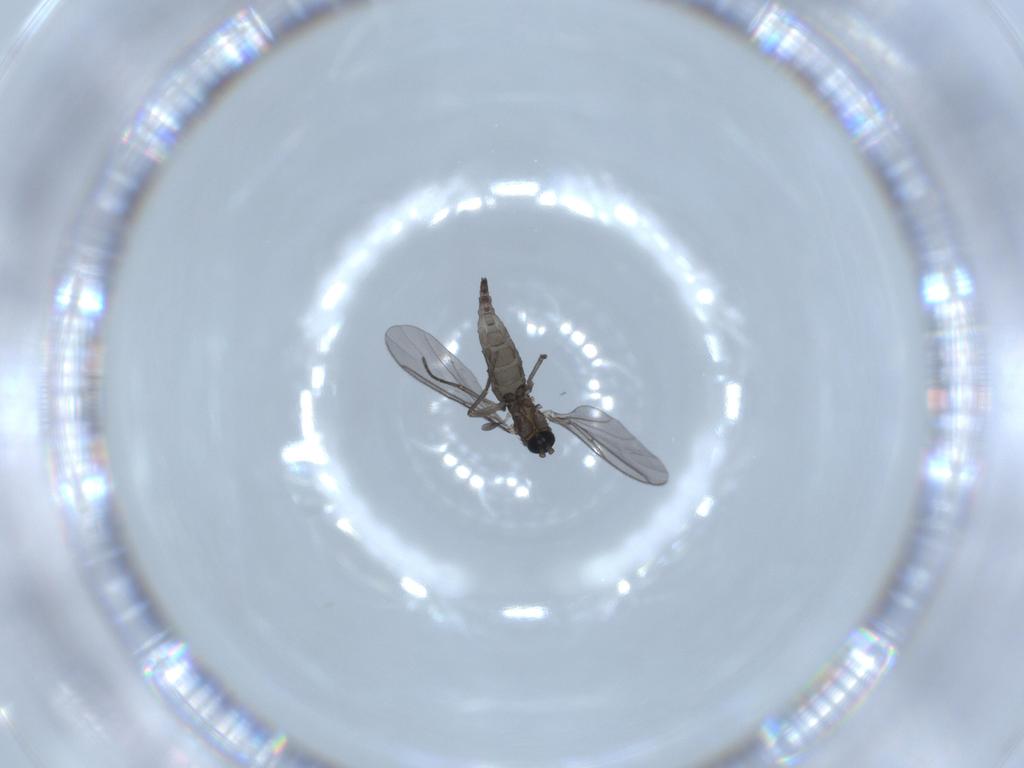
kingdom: Animalia
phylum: Arthropoda
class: Insecta
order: Diptera
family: Ephydridae
